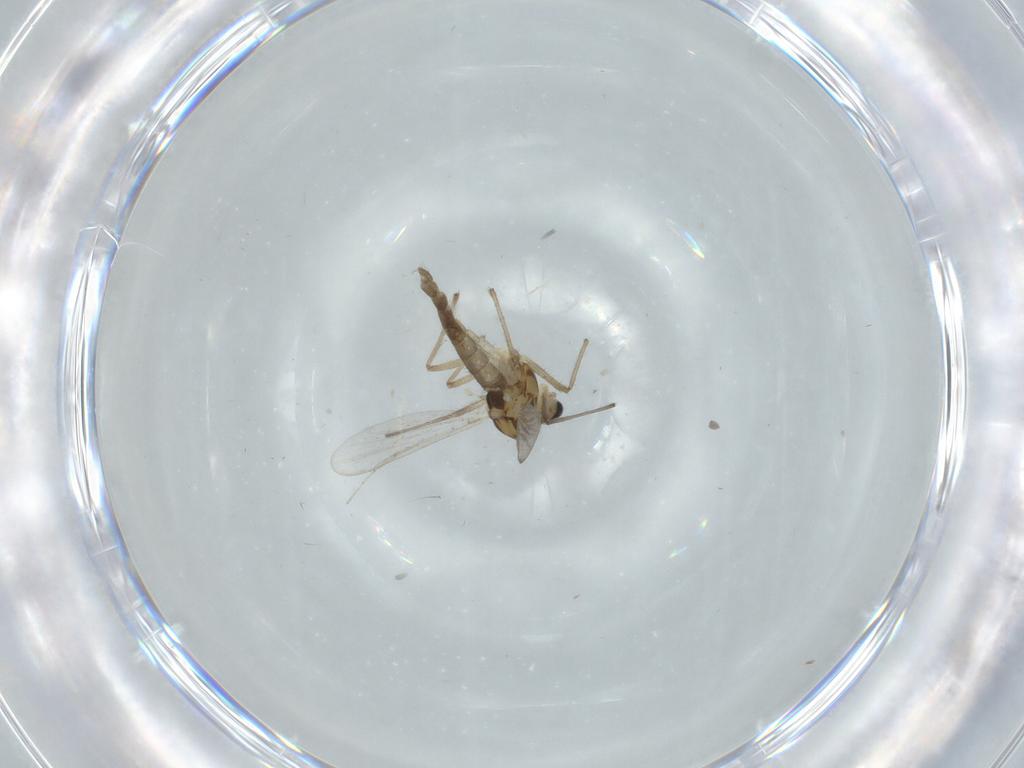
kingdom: Animalia
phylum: Arthropoda
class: Insecta
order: Diptera
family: Chironomidae
